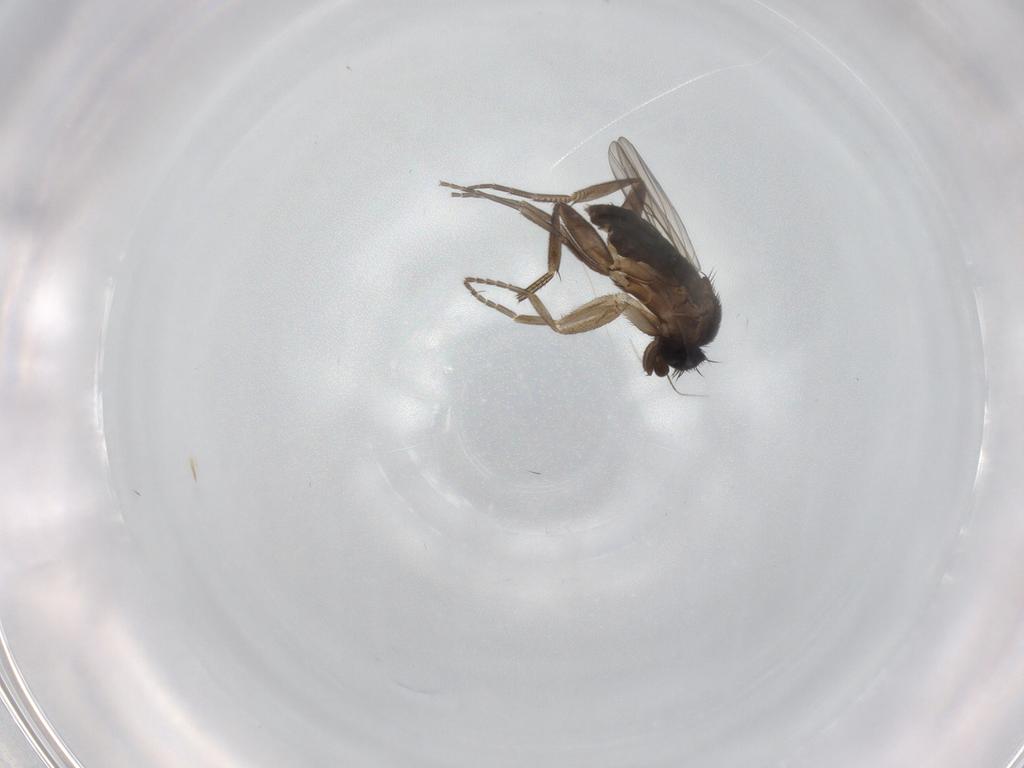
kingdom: Animalia
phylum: Arthropoda
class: Insecta
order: Diptera
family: Phoridae
